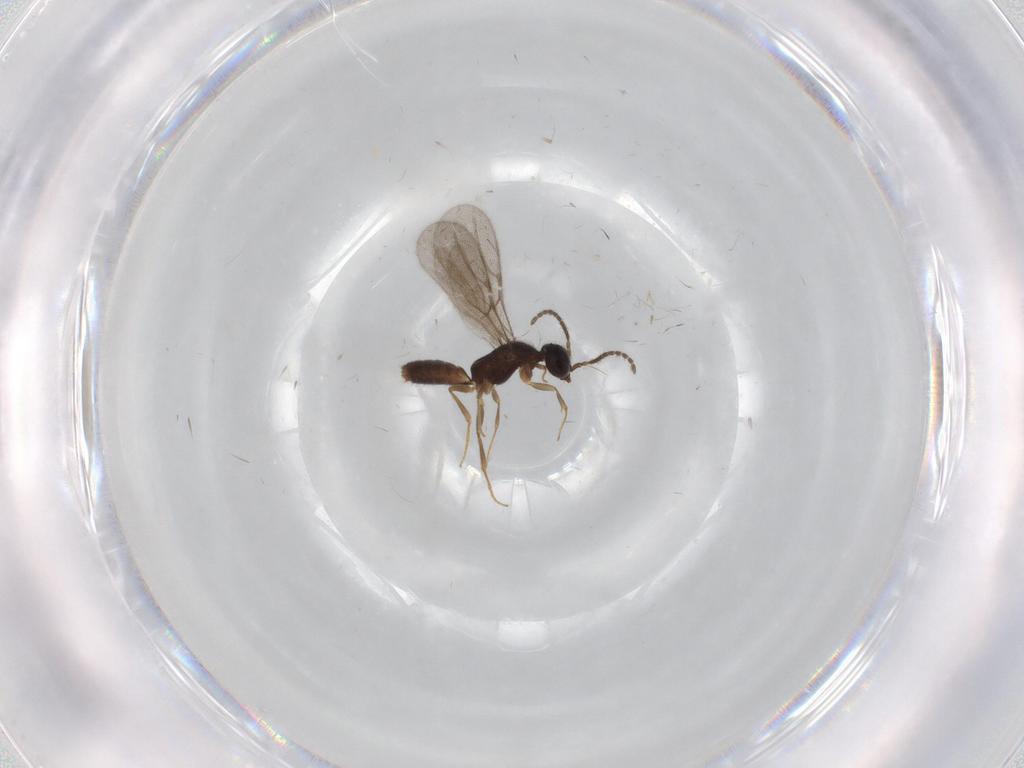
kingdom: Animalia
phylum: Arthropoda
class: Insecta
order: Hymenoptera
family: Bethylidae
